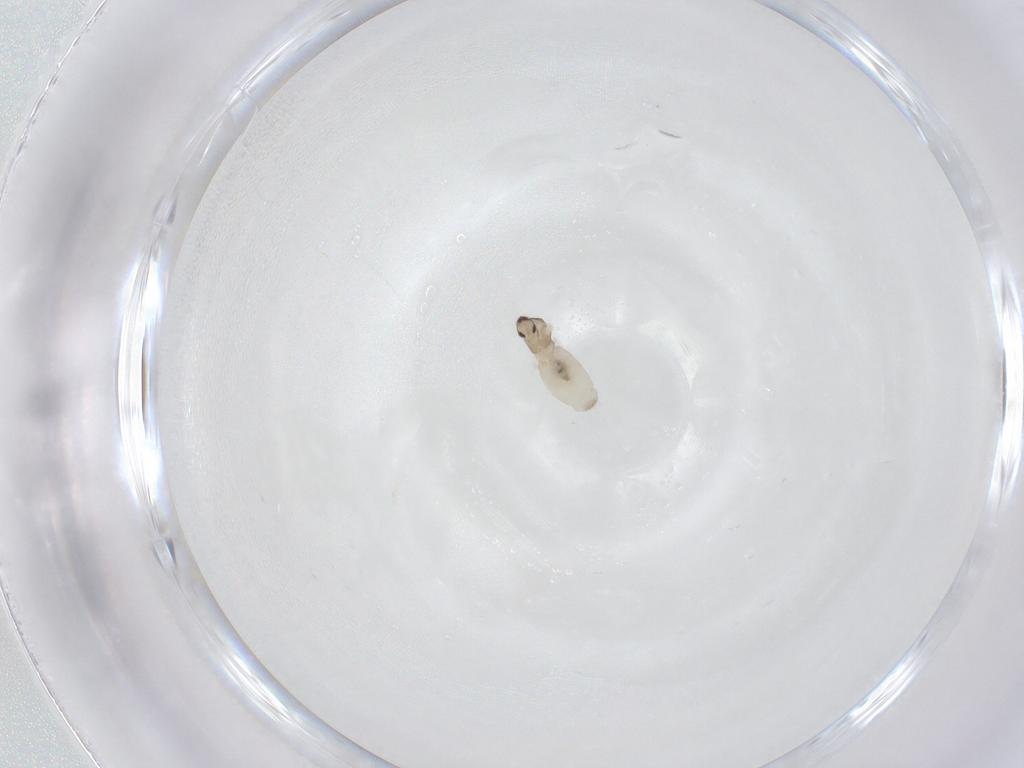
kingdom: Animalia
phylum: Arthropoda
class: Insecta
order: Diptera
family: Cecidomyiidae
